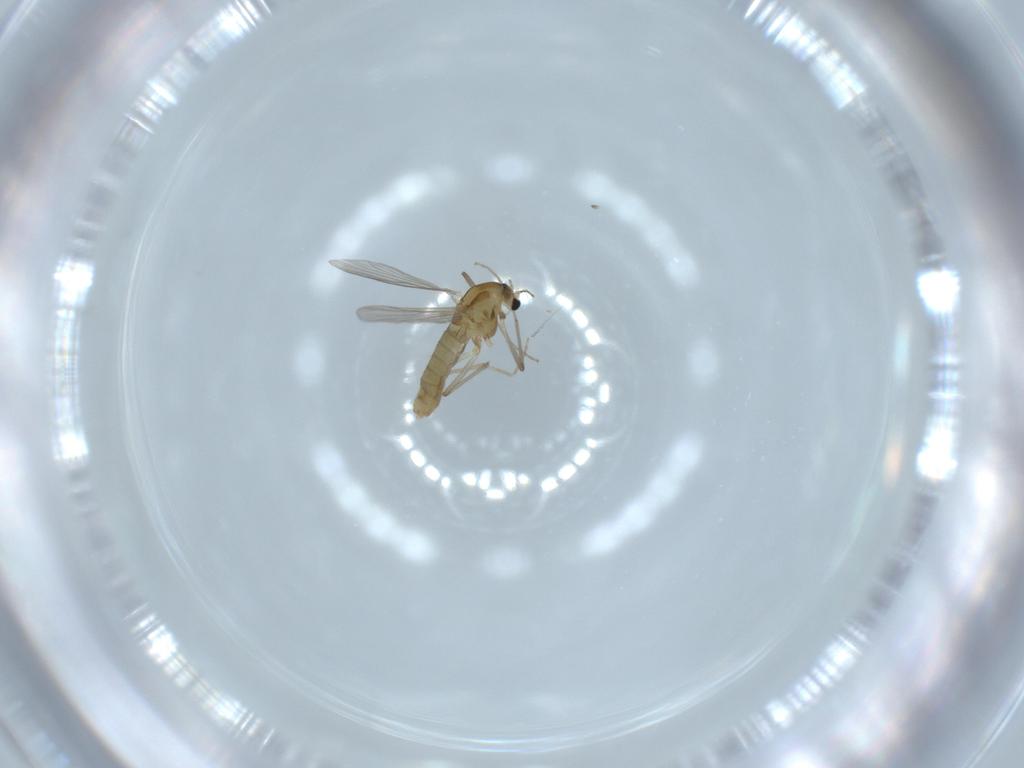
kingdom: Animalia
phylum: Arthropoda
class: Insecta
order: Diptera
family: Chironomidae
